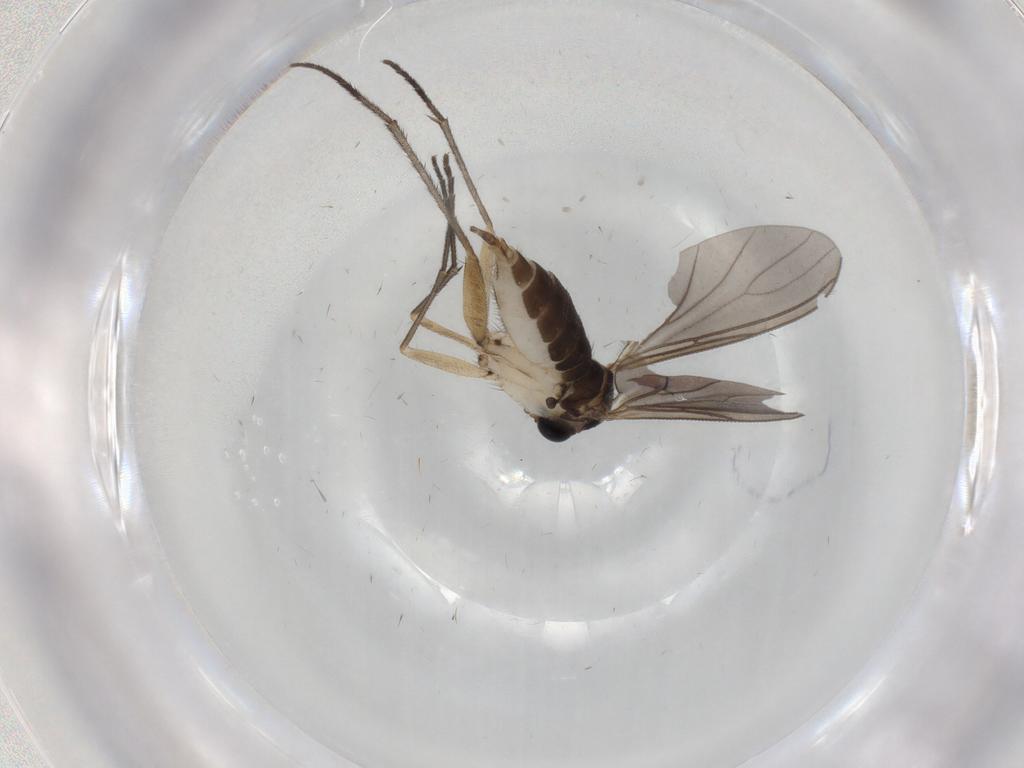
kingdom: Animalia
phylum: Arthropoda
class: Insecta
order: Diptera
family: Sciaridae
